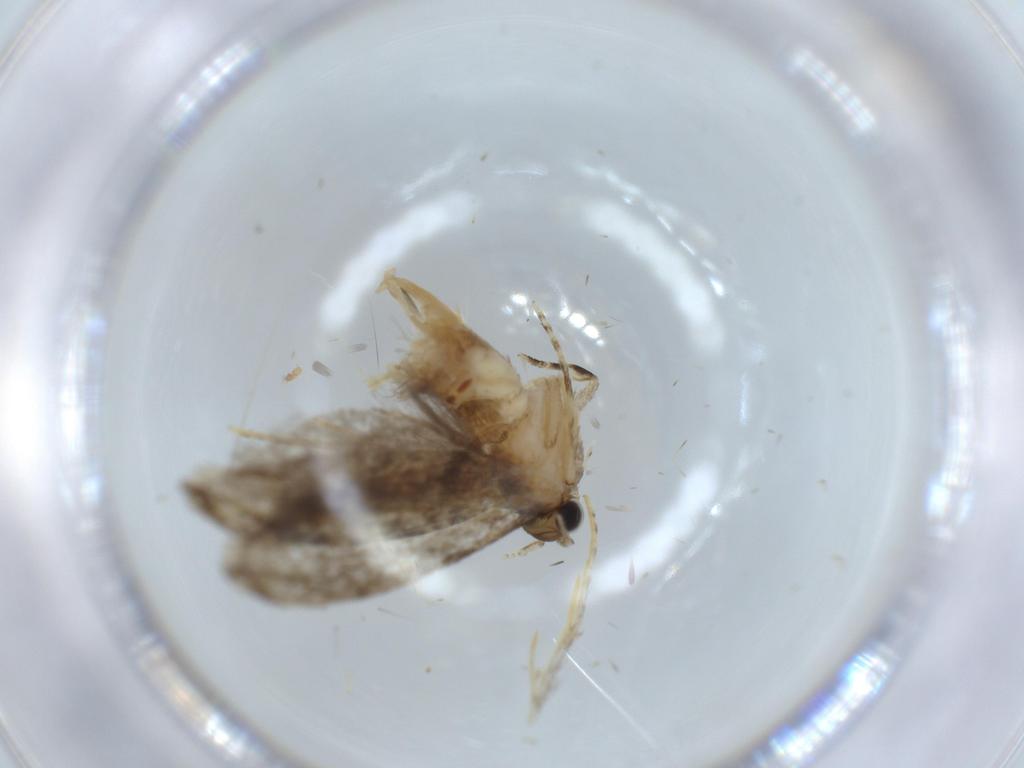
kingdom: Animalia
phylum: Arthropoda
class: Insecta
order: Lepidoptera
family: Tineidae
